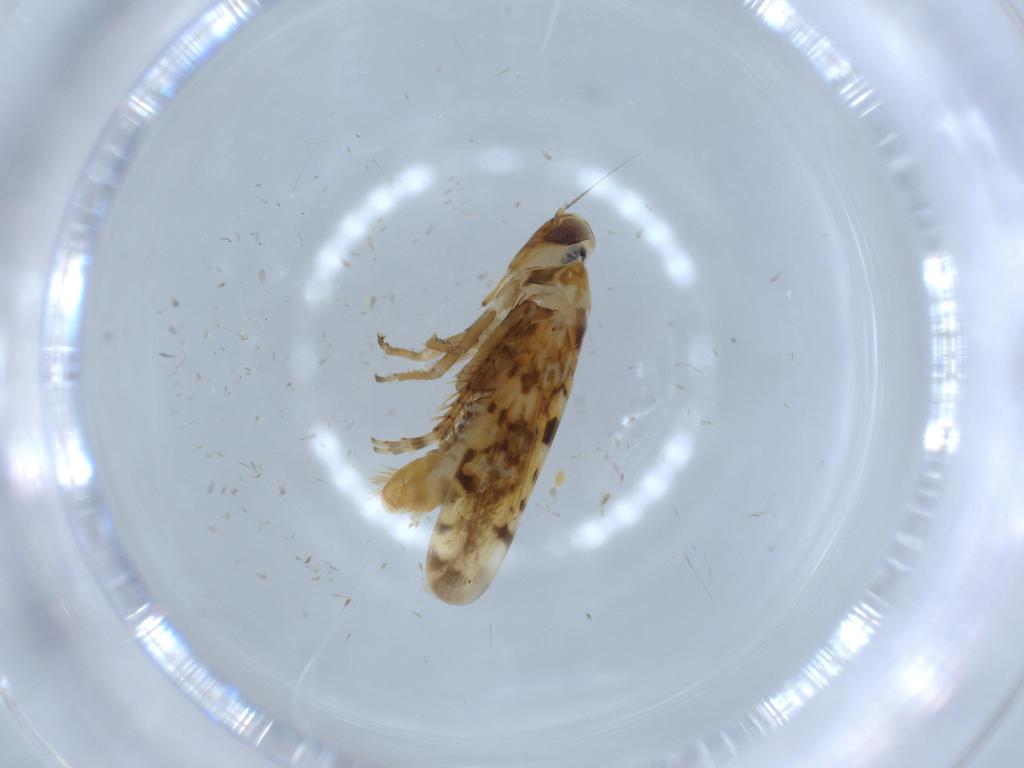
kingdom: Animalia
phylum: Arthropoda
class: Insecta
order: Hemiptera
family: Cicadellidae
